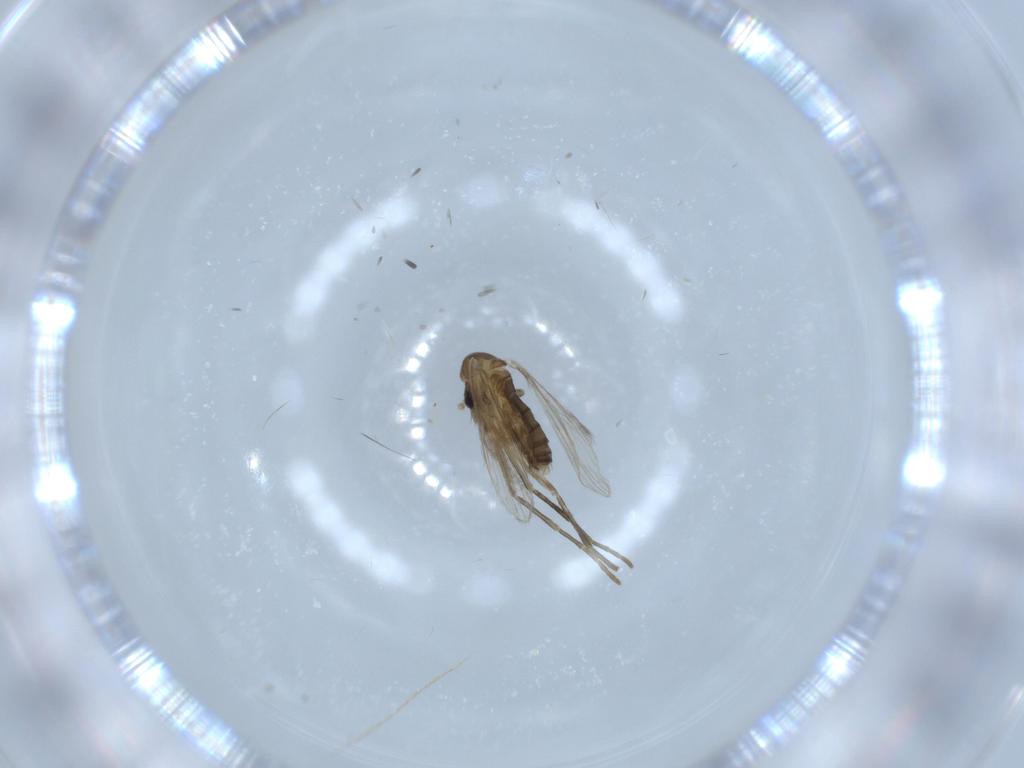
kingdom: Animalia
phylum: Arthropoda
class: Insecta
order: Diptera
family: Psychodidae
